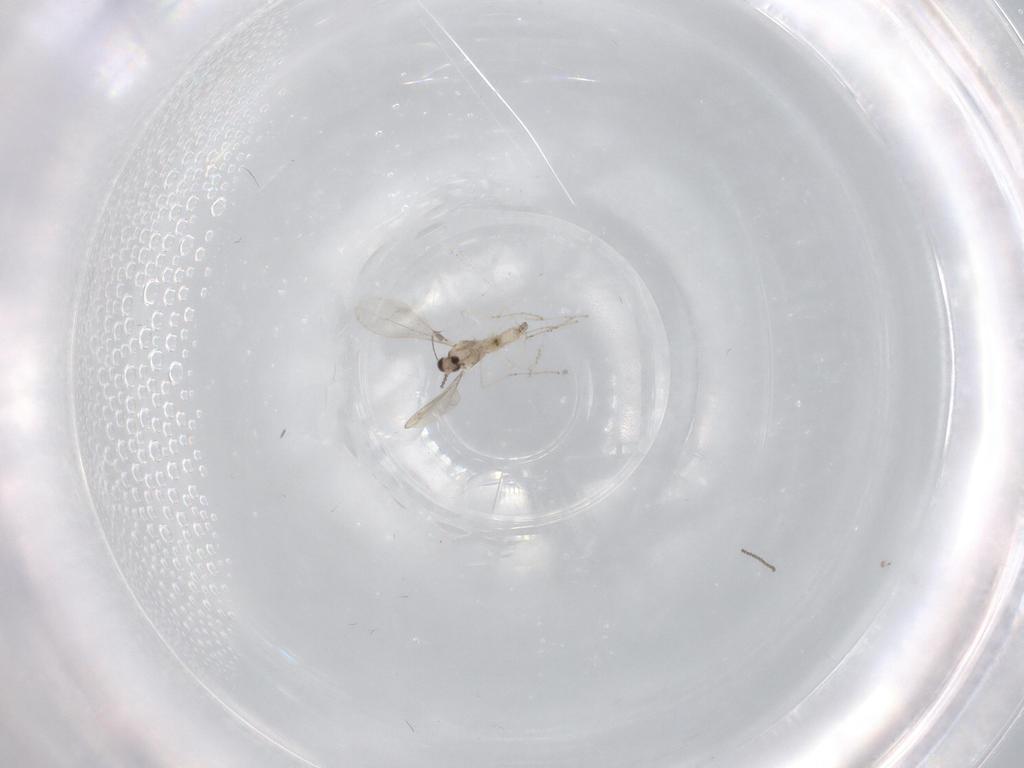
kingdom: Animalia
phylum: Arthropoda
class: Insecta
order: Diptera
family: Cecidomyiidae
